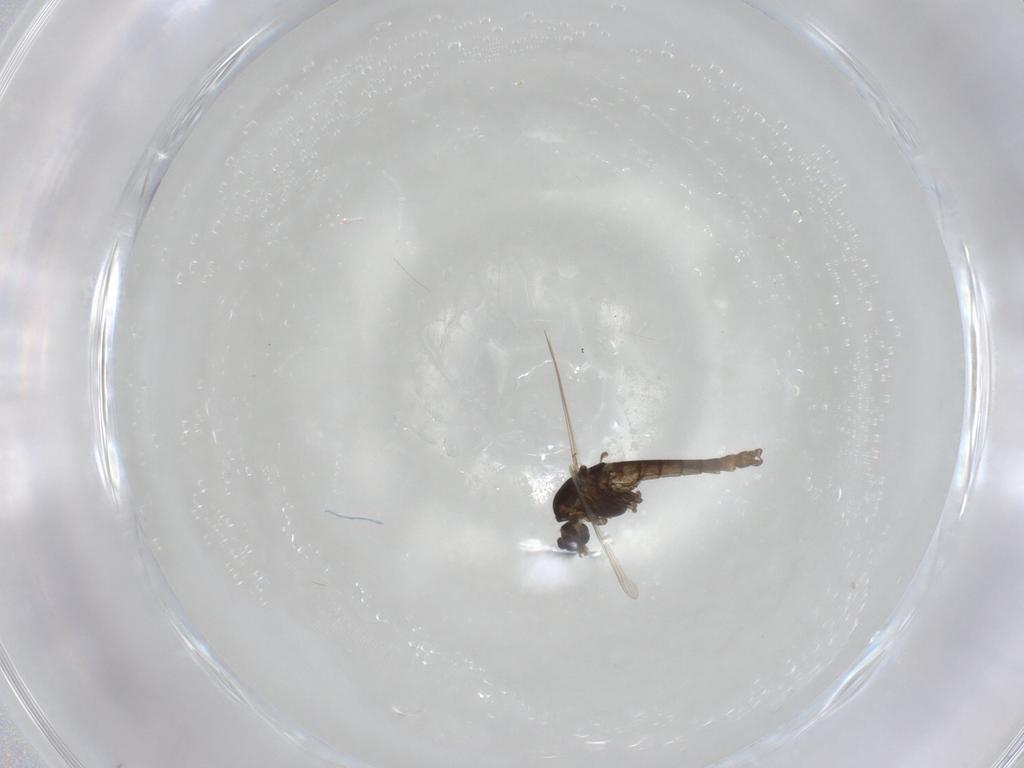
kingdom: Animalia
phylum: Arthropoda
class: Insecta
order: Diptera
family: Chironomidae
